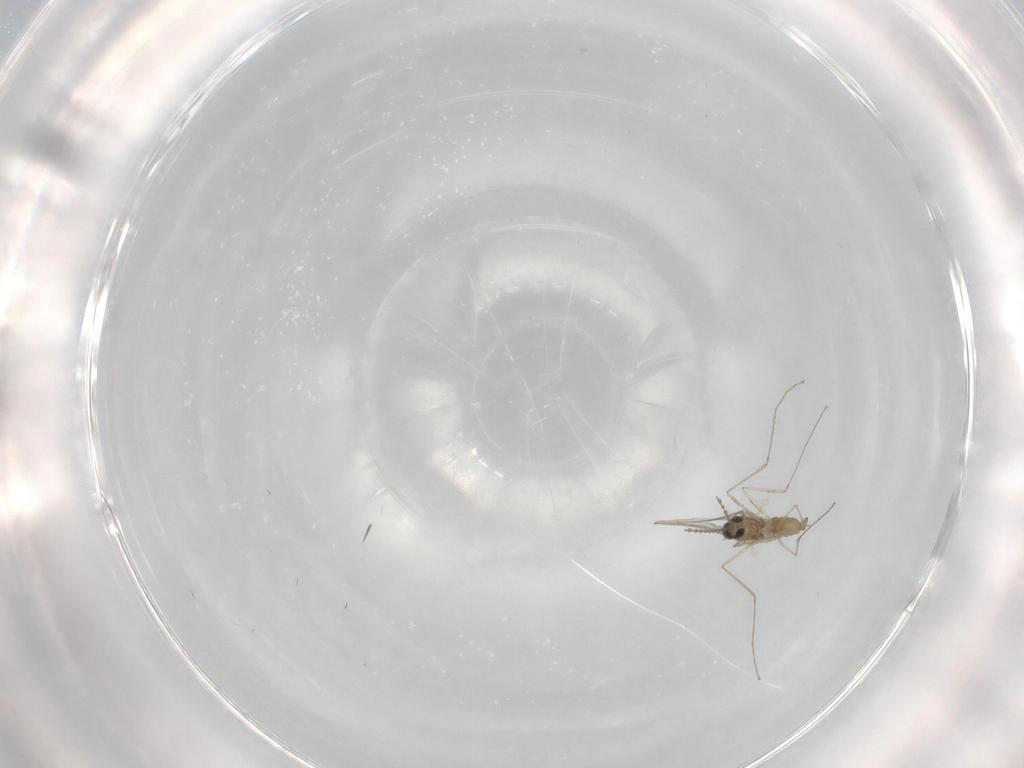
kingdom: Animalia
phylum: Arthropoda
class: Insecta
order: Diptera
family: Cecidomyiidae
